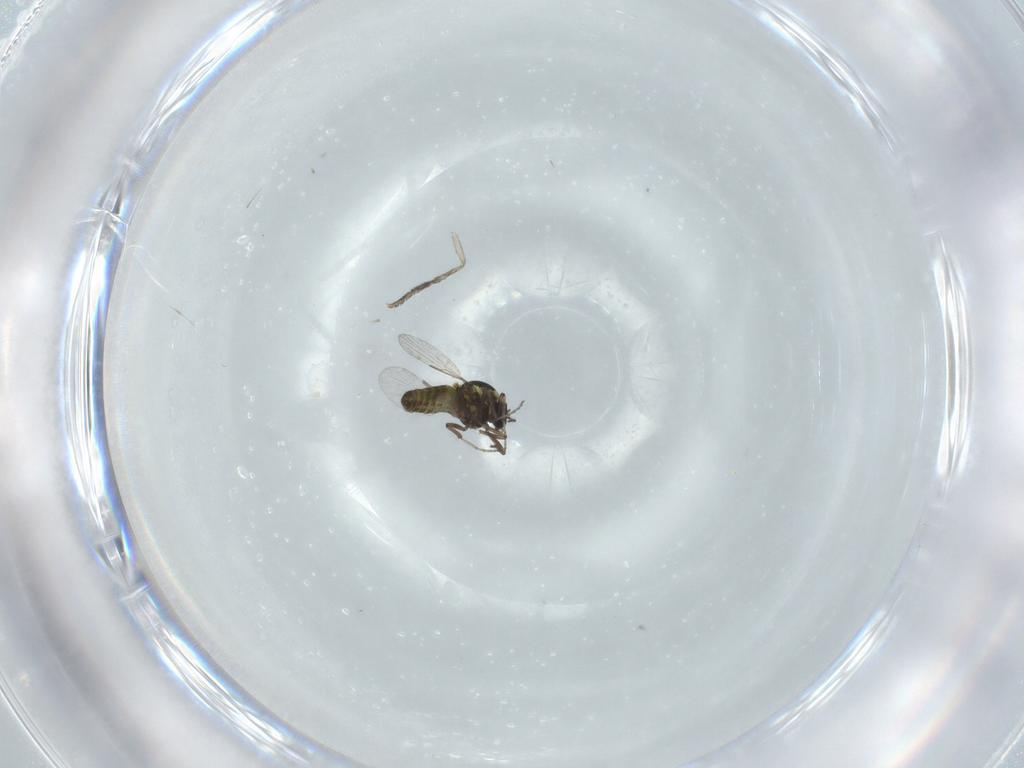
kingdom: Animalia
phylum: Arthropoda
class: Insecta
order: Diptera
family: Ceratopogonidae
